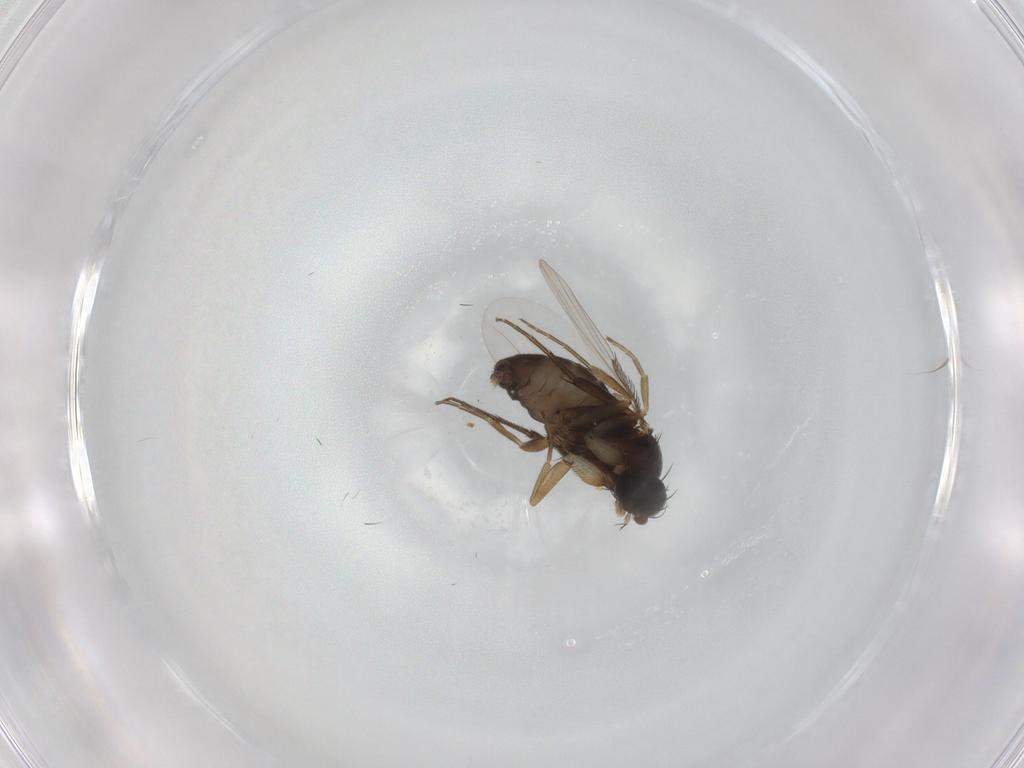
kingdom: Animalia
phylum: Arthropoda
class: Insecta
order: Diptera
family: Phoridae
